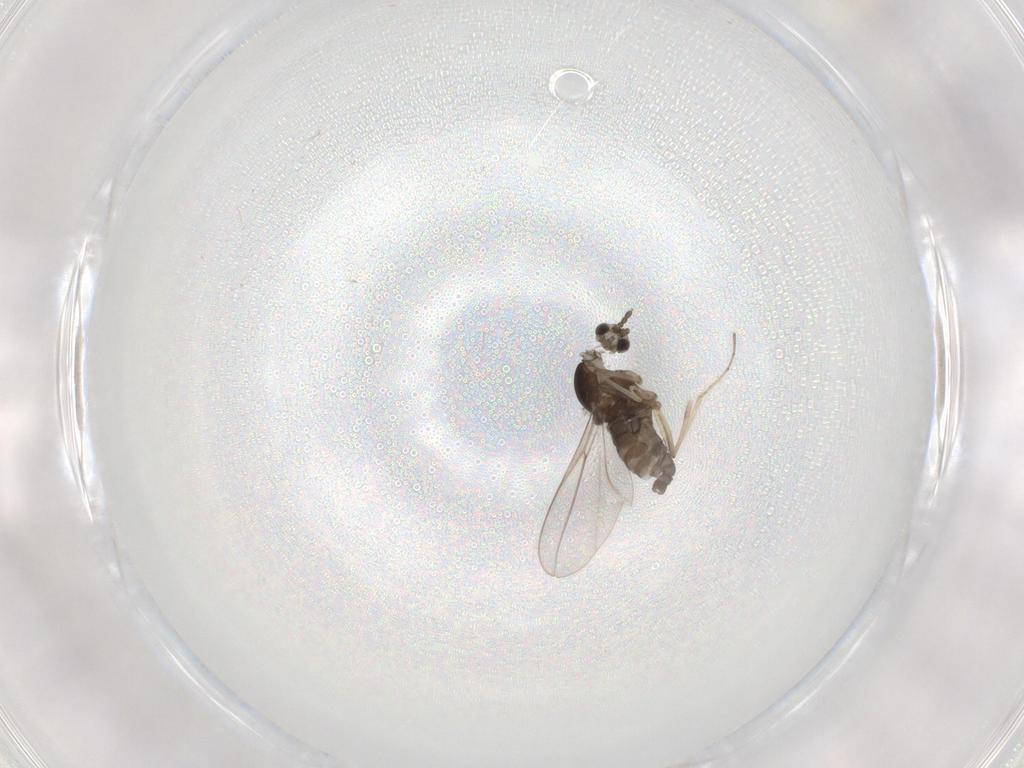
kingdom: Animalia
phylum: Arthropoda
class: Insecta
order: Diptera
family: Cecidomyiidae
